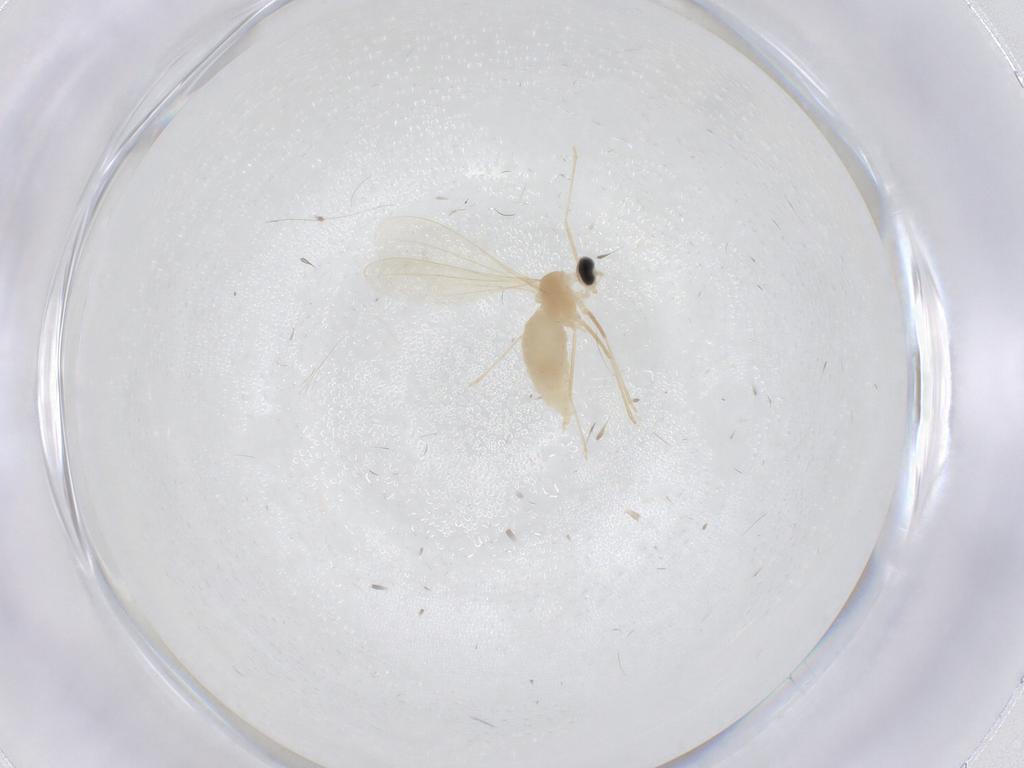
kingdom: Animalia
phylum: Arthropoda
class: Insecta
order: Diptera
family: Cecidomyiidae
